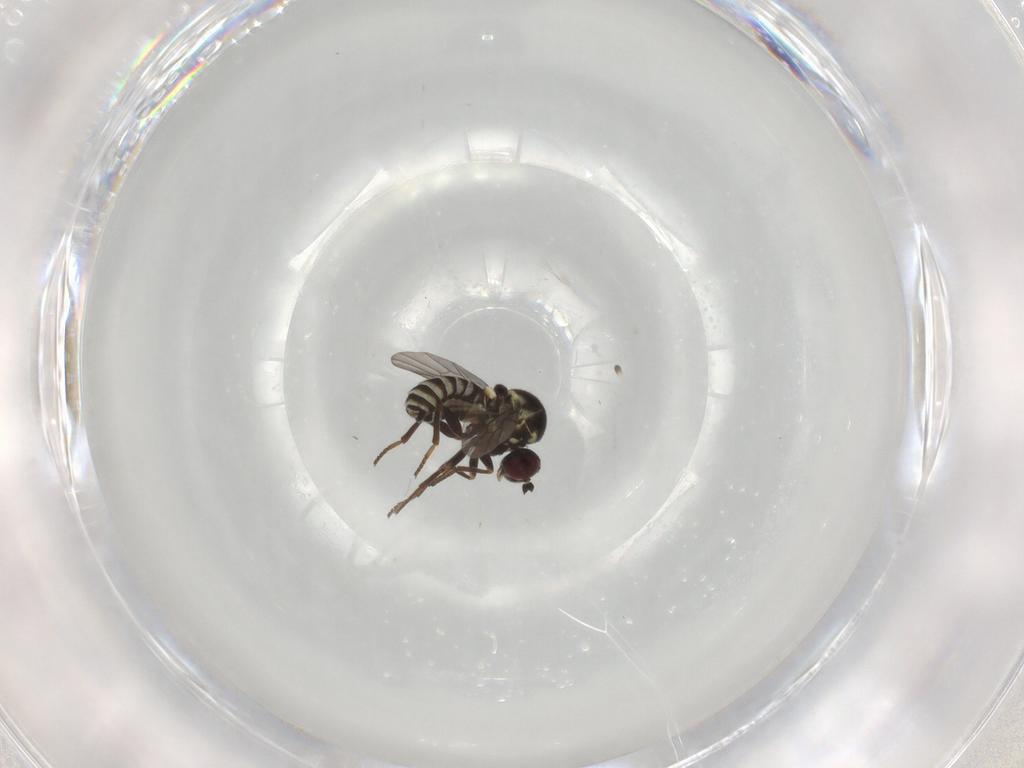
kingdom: Animalia
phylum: Arthropoda
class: Insecta
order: Diptera
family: Mythicomyiidae
